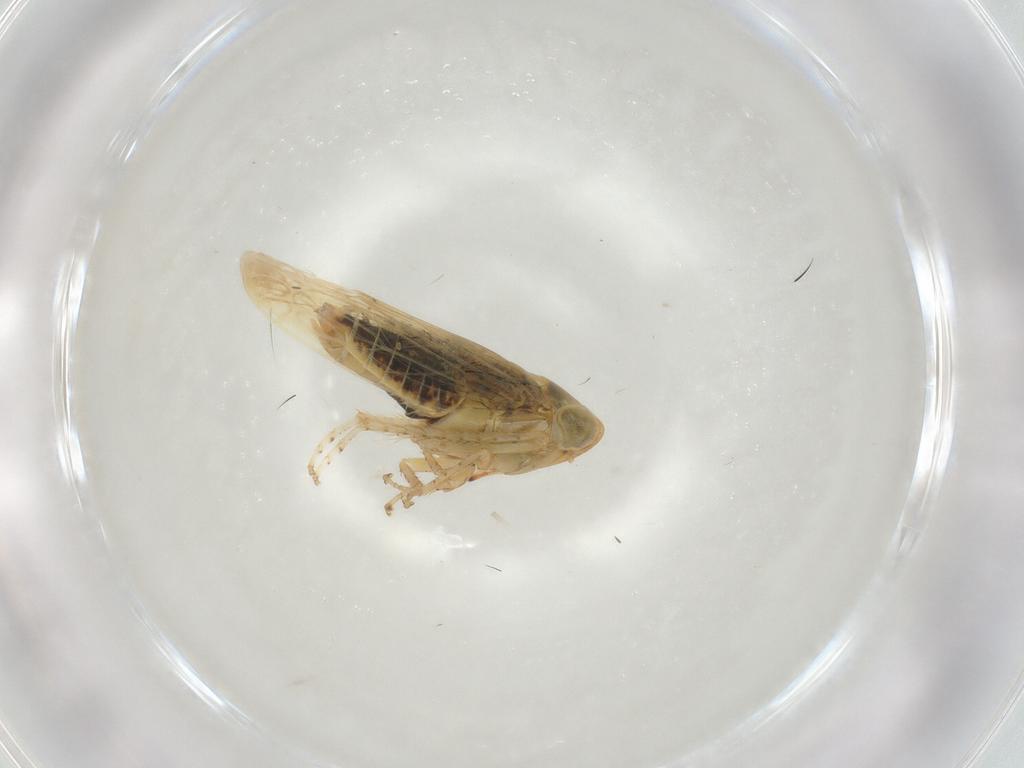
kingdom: Animalia
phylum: Arthropoda
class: Insecta
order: Hemiptera
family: Cicadellidae
